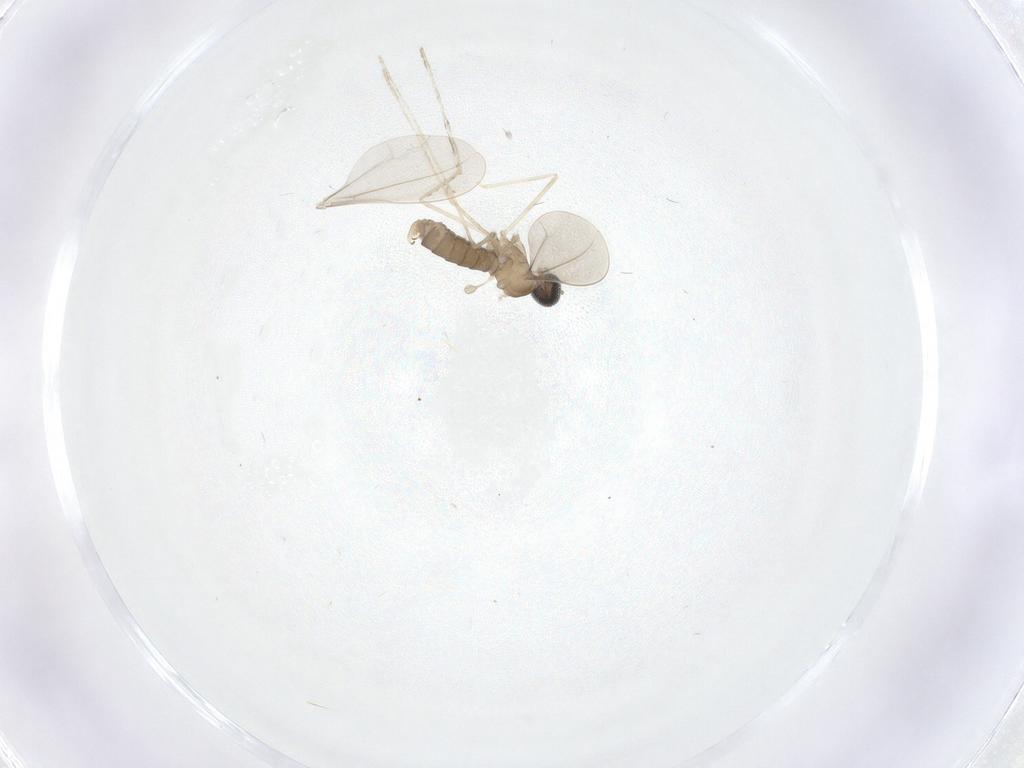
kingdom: Animalia
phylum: Arthropoda
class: Insecta
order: Diptera
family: Cecidomyiidae
